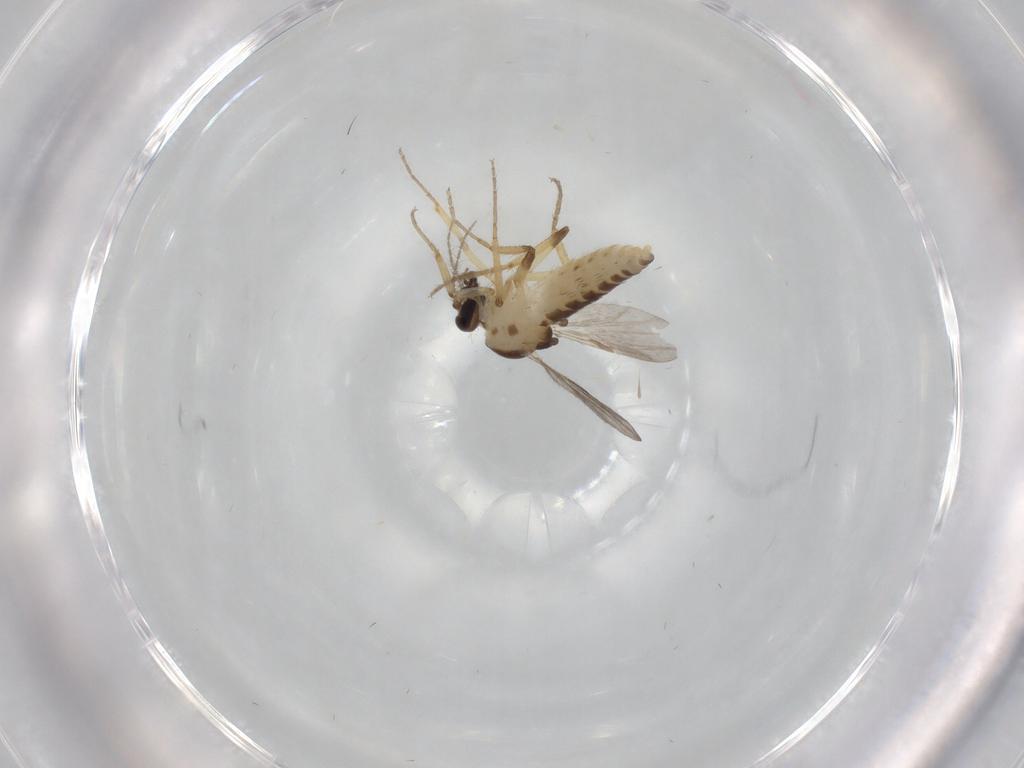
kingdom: Animalia
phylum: Arthropoda
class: Insecta
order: Diptera
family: Ceratopogonidae
